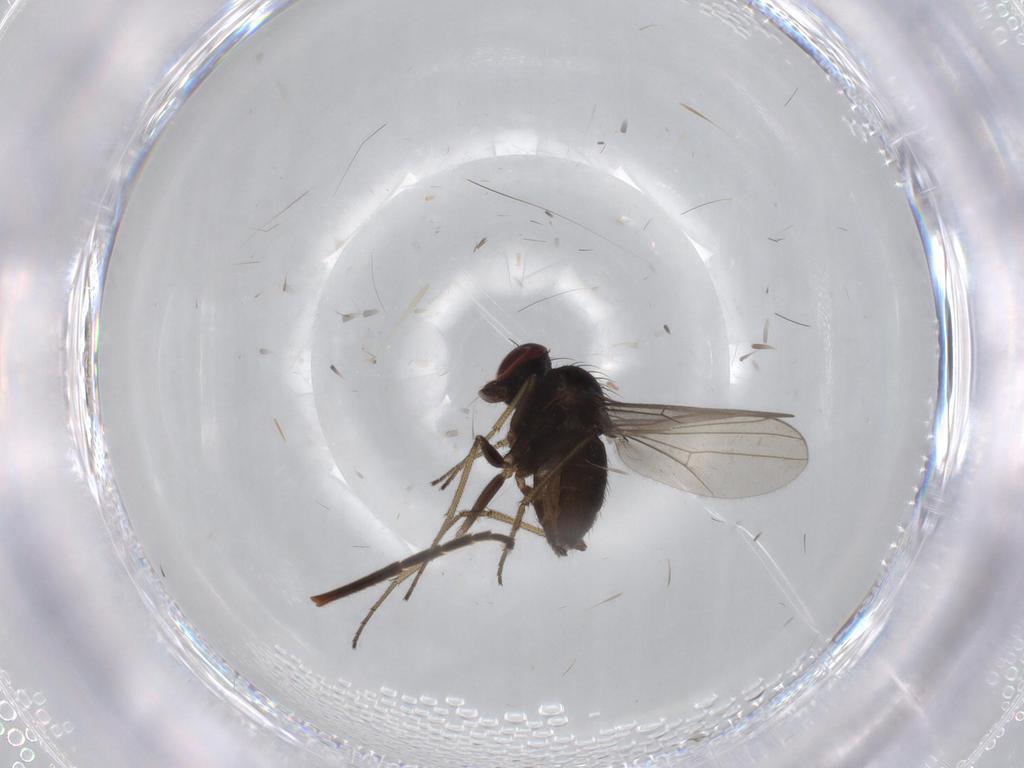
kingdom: Animalia
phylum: Arthropoda
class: Insecta
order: Diptera
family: Dolichopodidae
